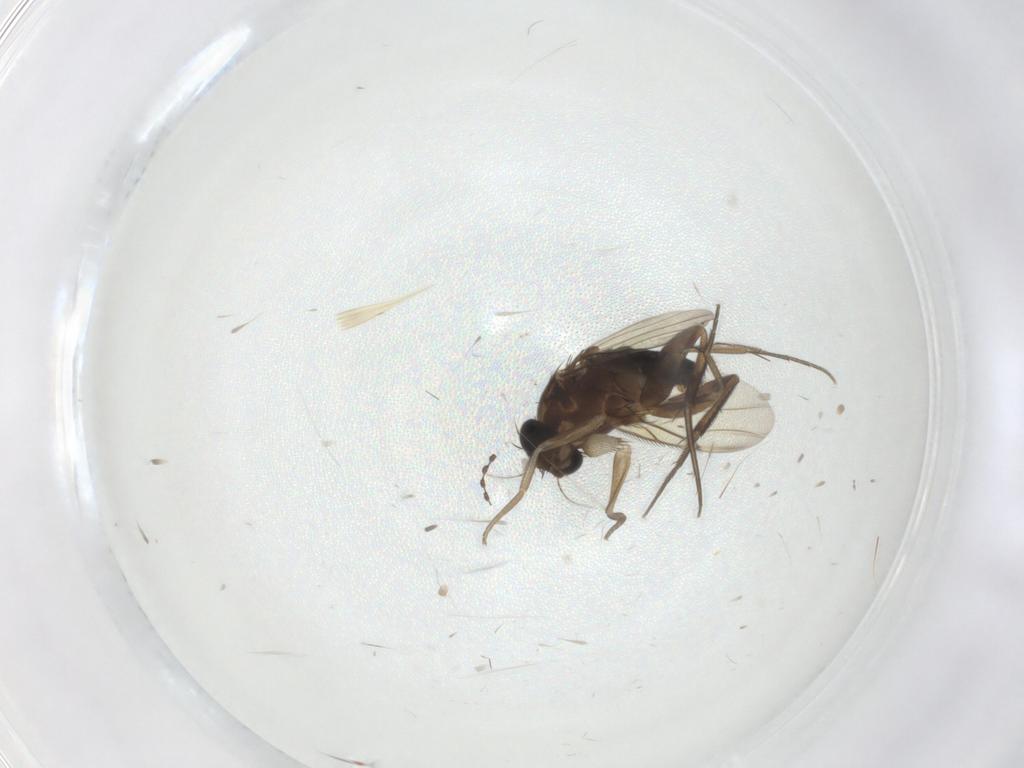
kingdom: Animalia
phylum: Arthropoda
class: Insecta
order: Diptera
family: Phoridae
